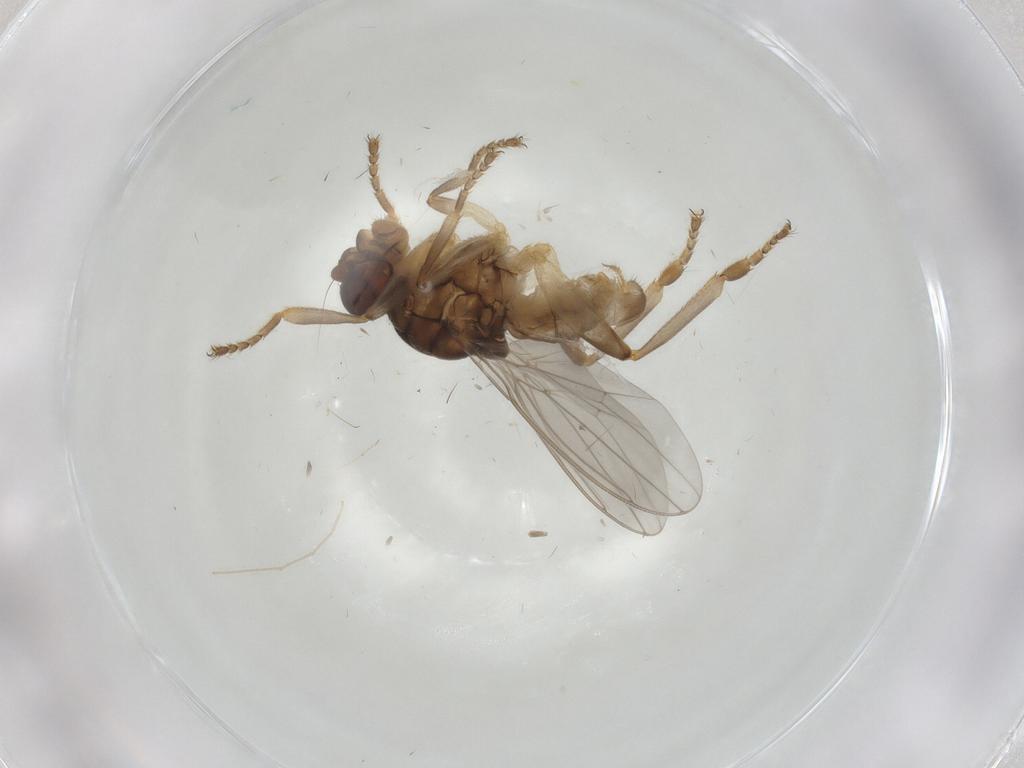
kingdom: Animalia
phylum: Arthropoda
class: Insecta
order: Diptera
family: Sphaeroceridae
